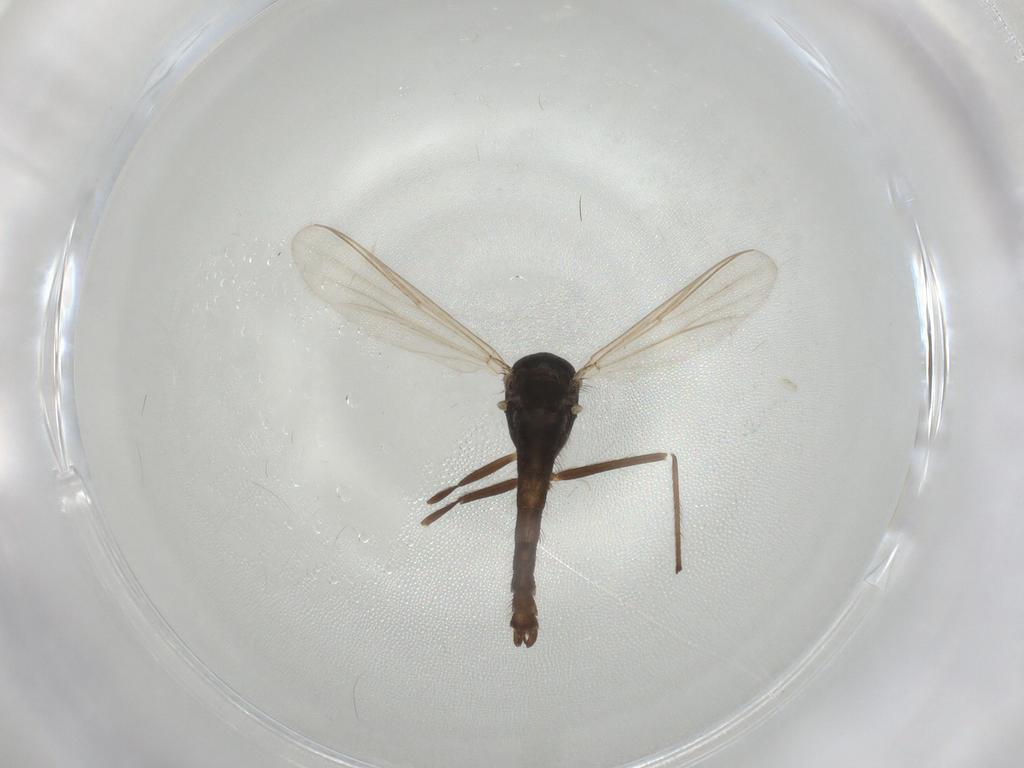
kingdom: Animalia
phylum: Arthropoda
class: Insecta
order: Diptera
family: Chironomidae
